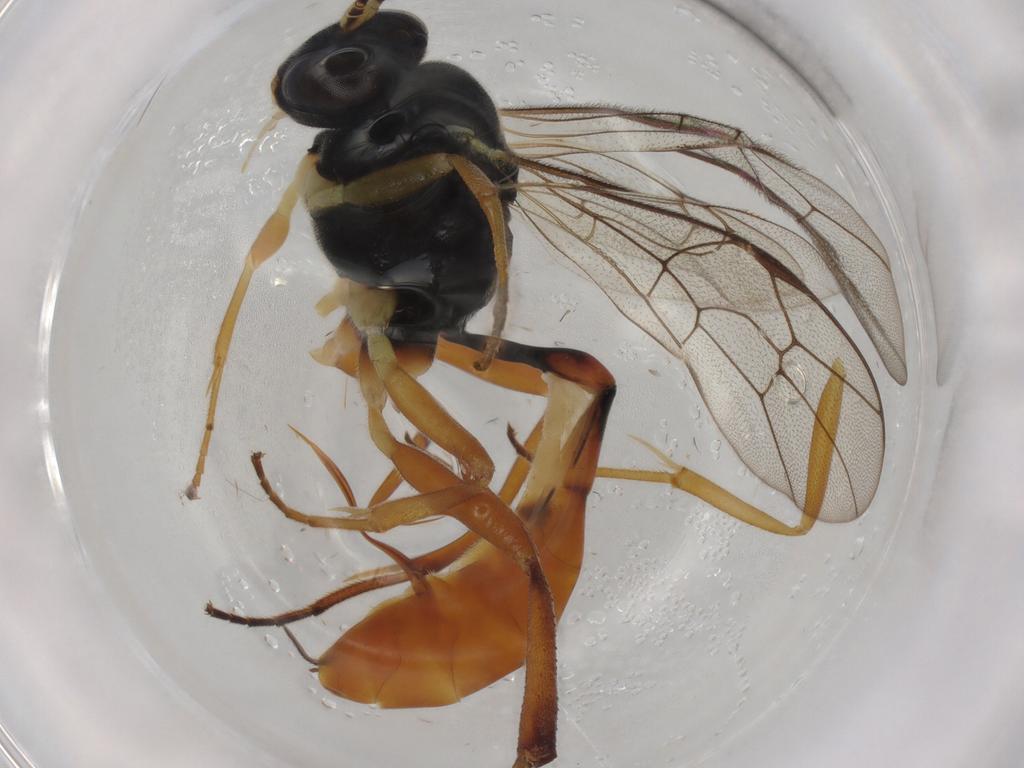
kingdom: Animalia
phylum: Arthropoda
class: Insecta
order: Hymenoptera
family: Ichneumonidae
